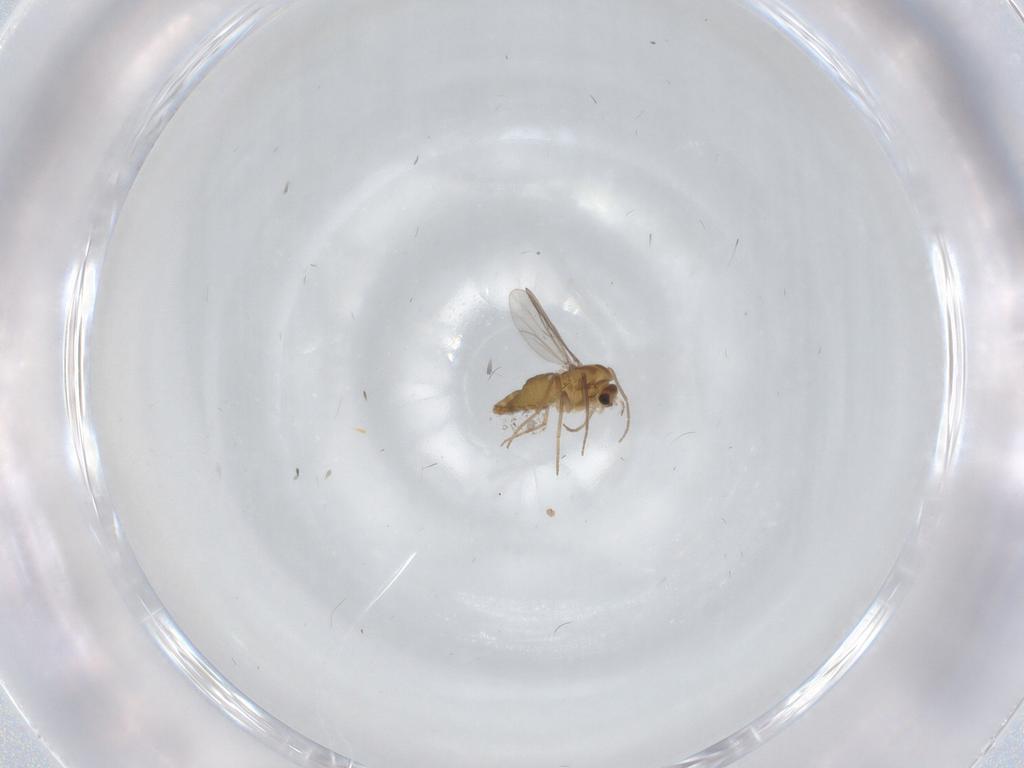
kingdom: Animalia
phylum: Arthropoda
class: Insecta
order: Diptera
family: Chironomidae
